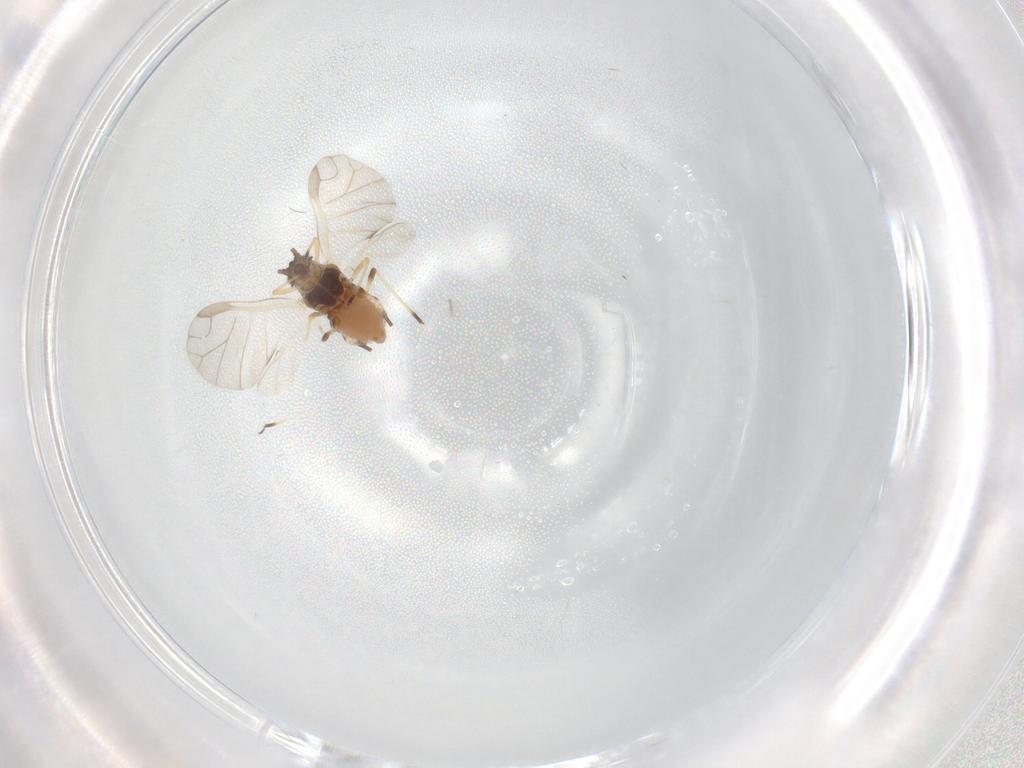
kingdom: Animalia
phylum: Arthropoda
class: Insecta
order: Hemiptera
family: Aphididae
